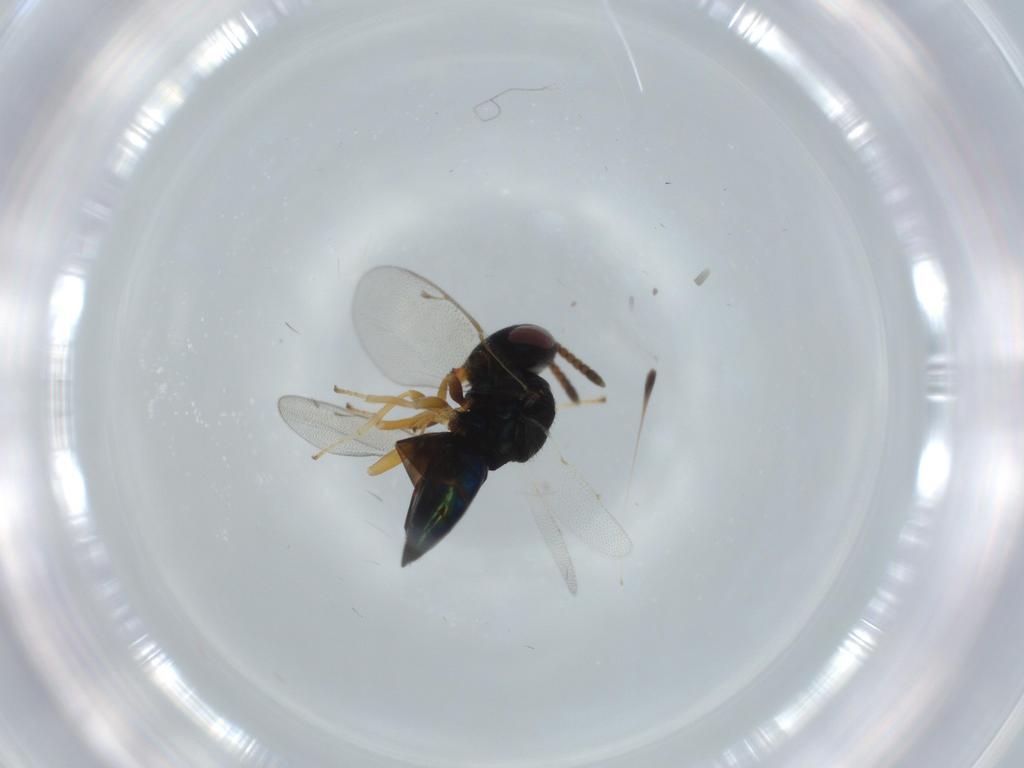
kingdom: Animalia
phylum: Arthropoda
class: Insecta
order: Hymenoptera
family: Pteromalidae
